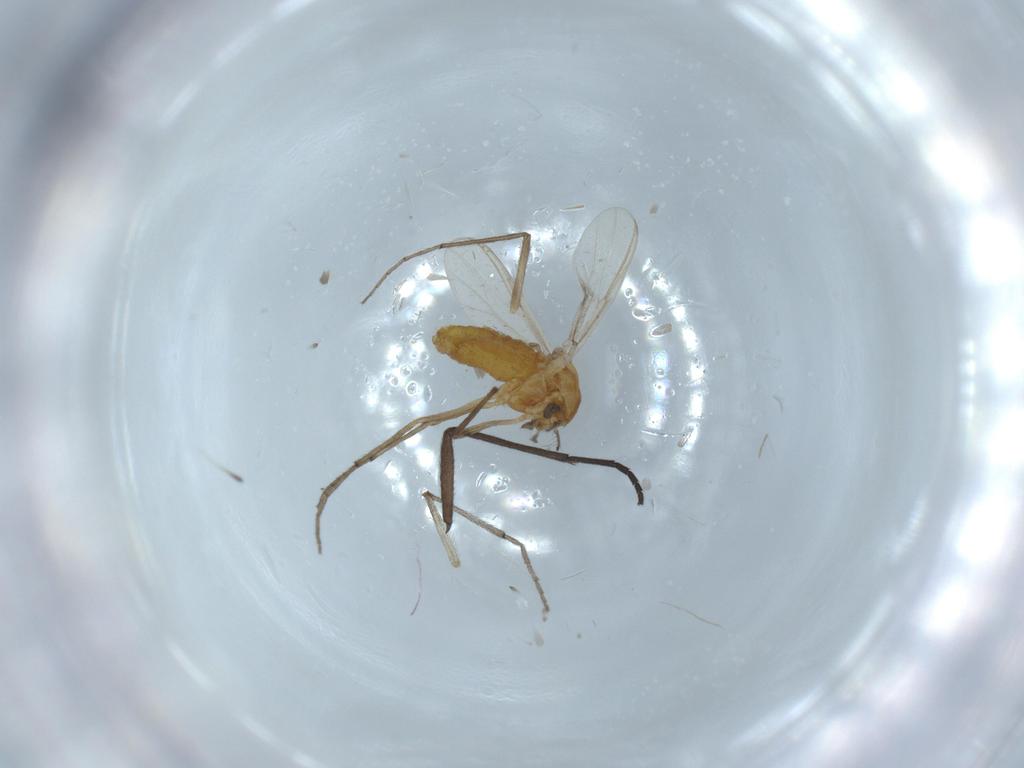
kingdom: Animalia
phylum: Arthropoda
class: Insecta
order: Diptera
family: Chironomidae
